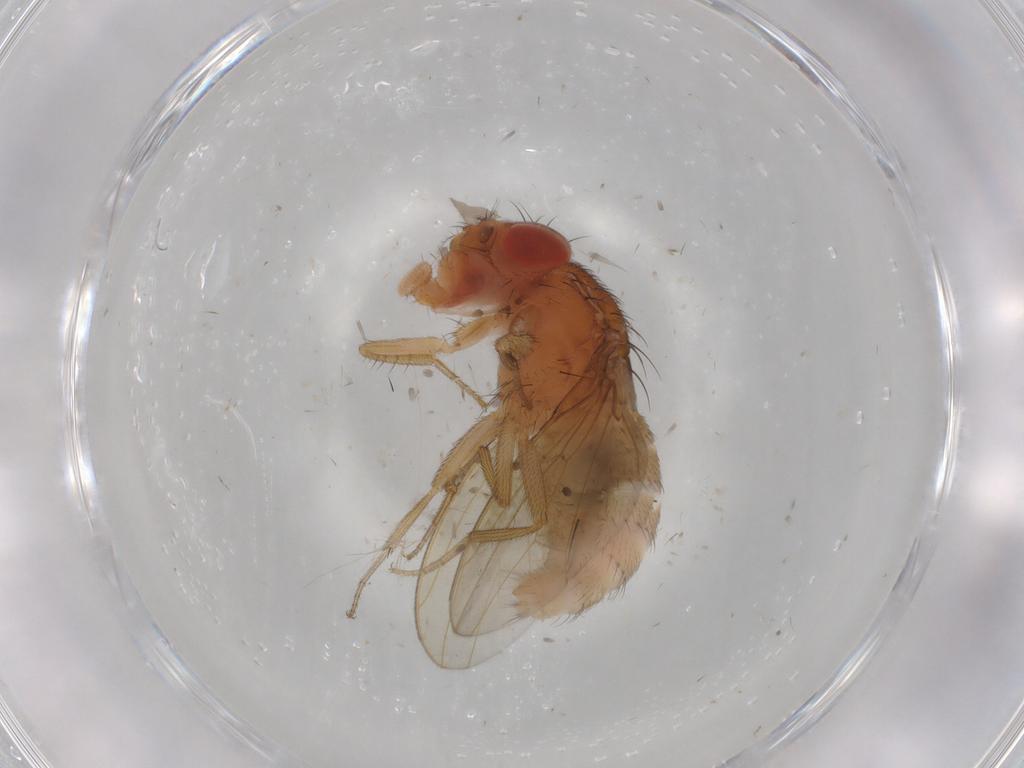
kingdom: Animalia
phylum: Arthropoda
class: Insecta
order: Diptera
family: Drosophilidae
